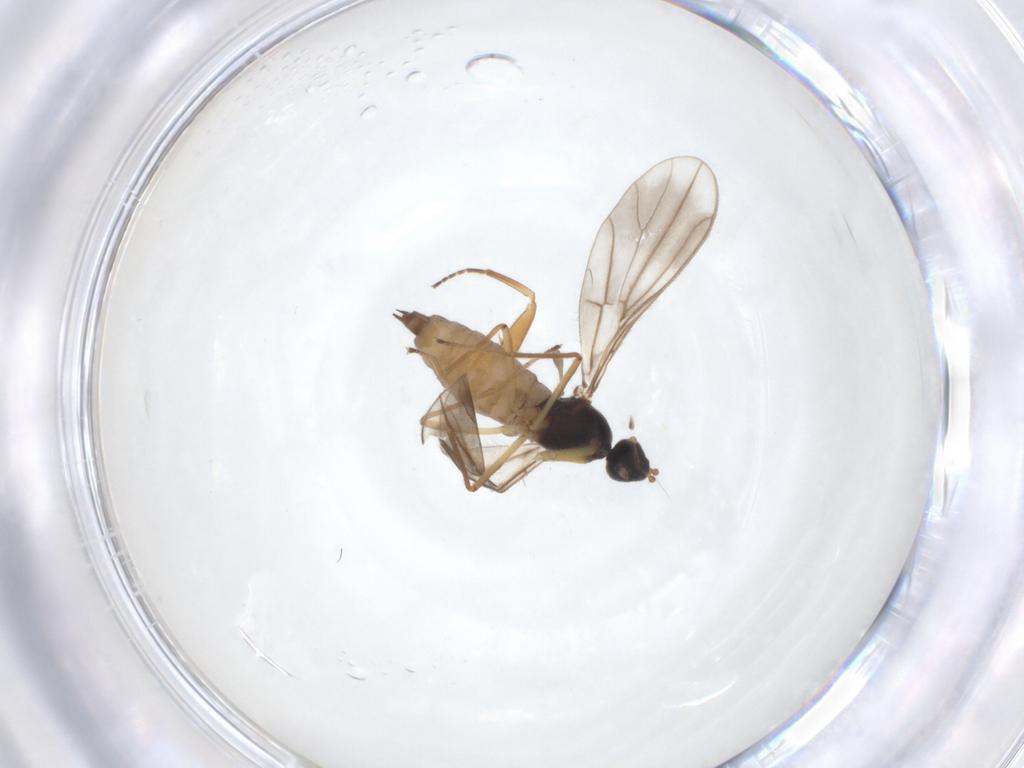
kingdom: Animalia
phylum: Arthropoda
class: Insecta
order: Diptera
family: Empididae
